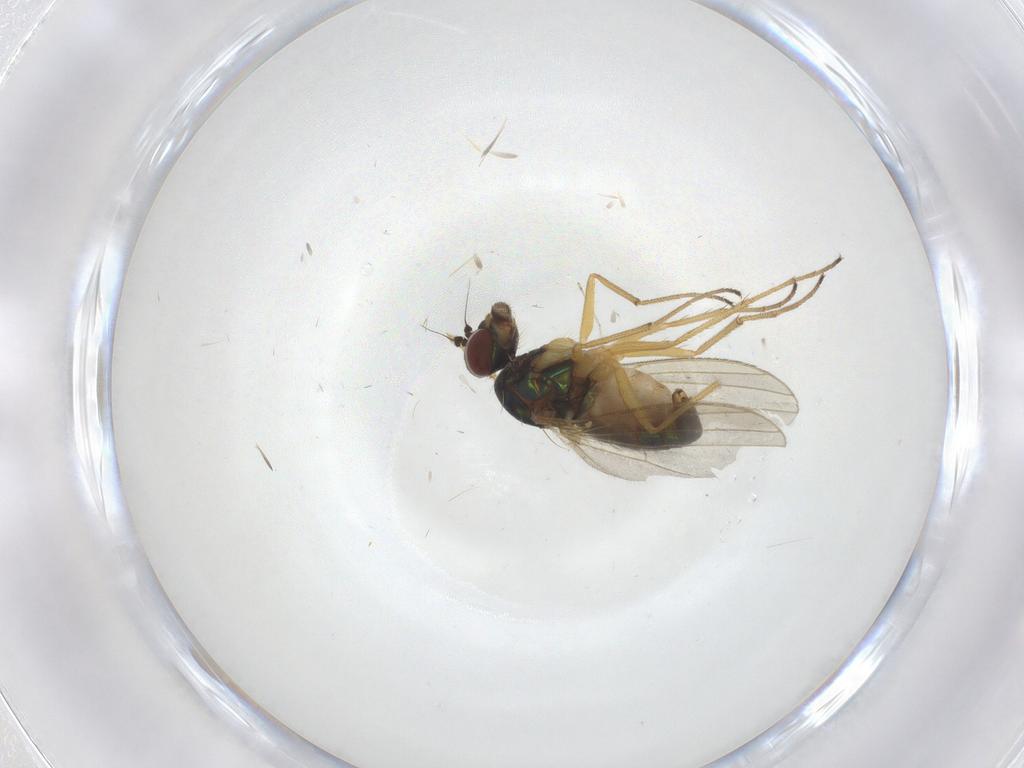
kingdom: Animalia
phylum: Arthropoda
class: Insecta
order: Diptera
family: Dolichopodidae
